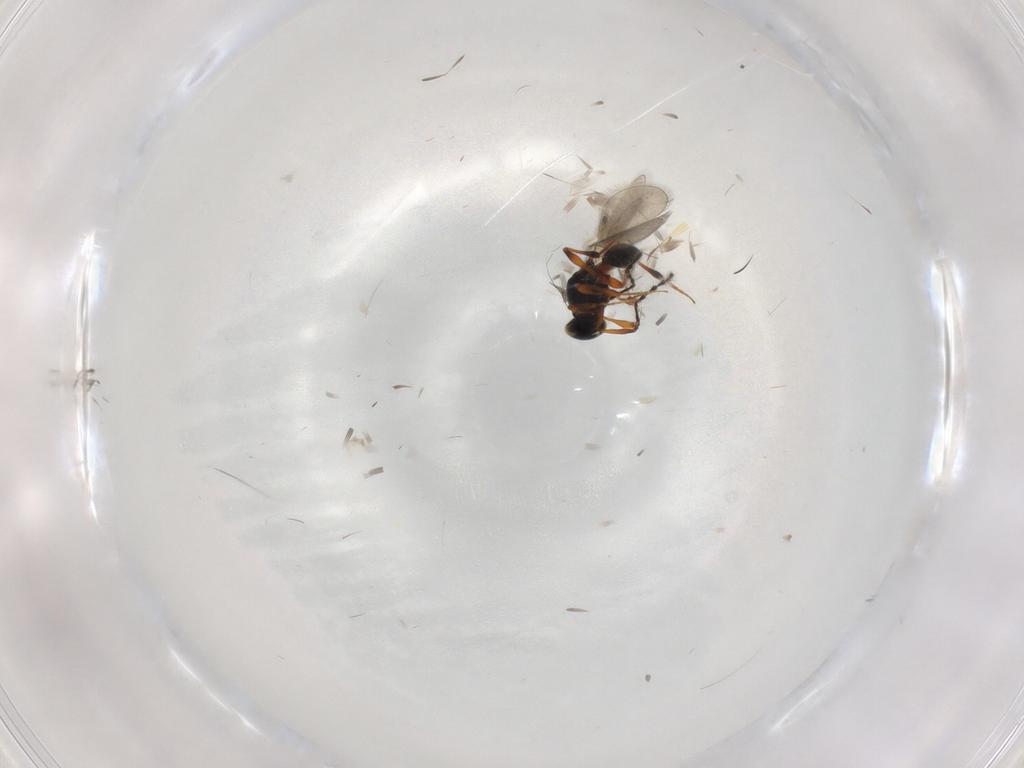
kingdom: Animalia
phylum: Arthropoda
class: Insecta
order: Hymenoptera
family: Platygastridae
